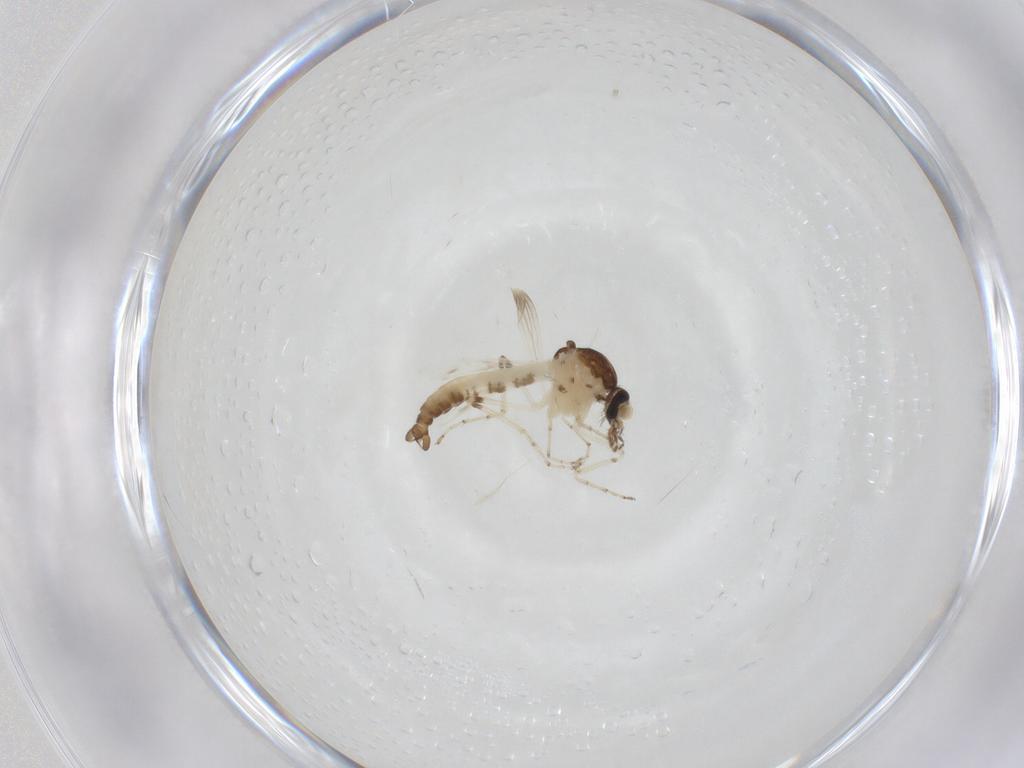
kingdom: Animalia
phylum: Arthropoda
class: Insecta
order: Diptera
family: Ceratopogonidae
